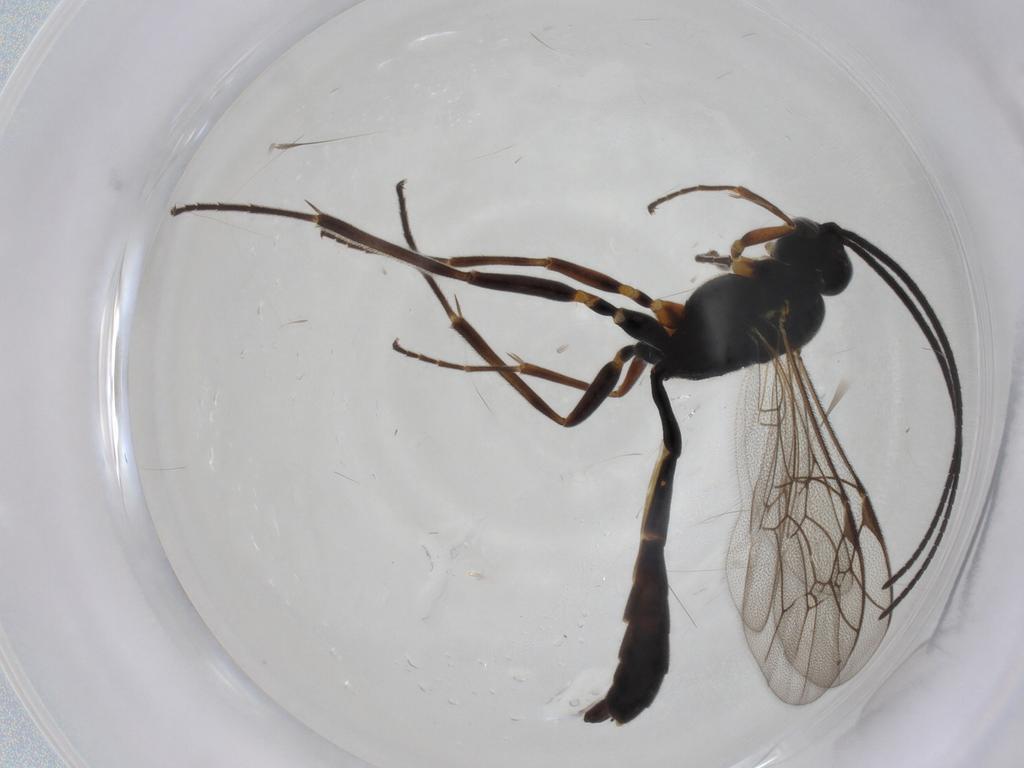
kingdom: Animalia
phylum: Arthropoda
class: Insecta
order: Hymenoptera
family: Ichneumonidae
